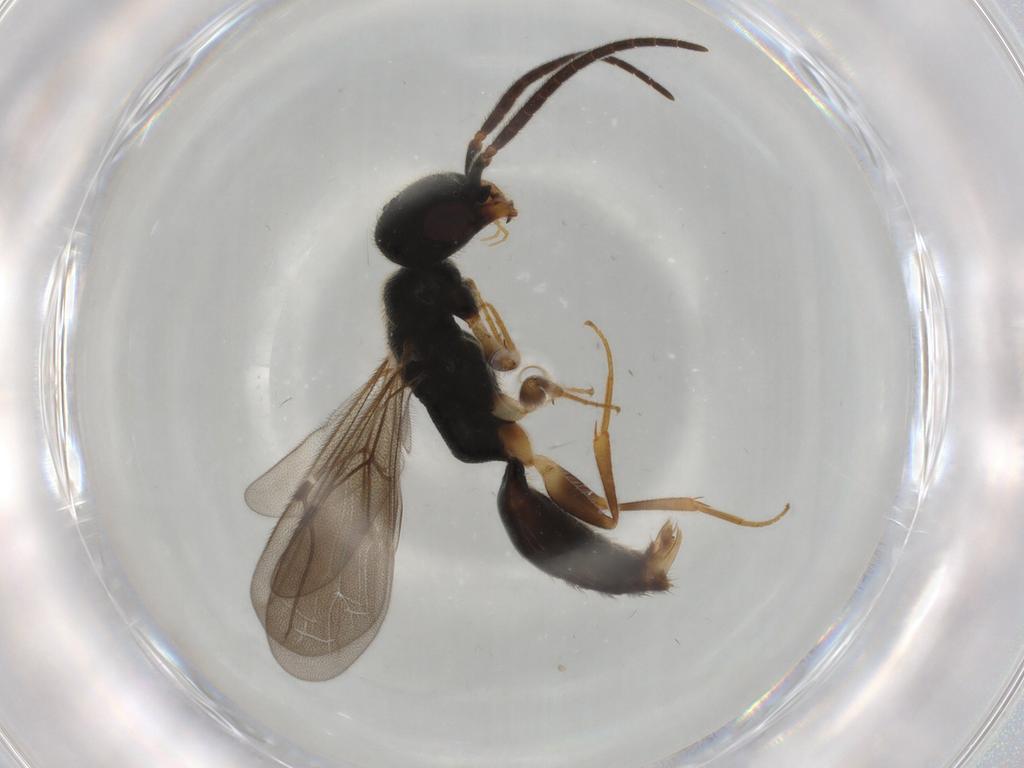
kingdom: Animalia
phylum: Arthropoda
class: Insecta
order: Hymenoptera
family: Bethylidae
